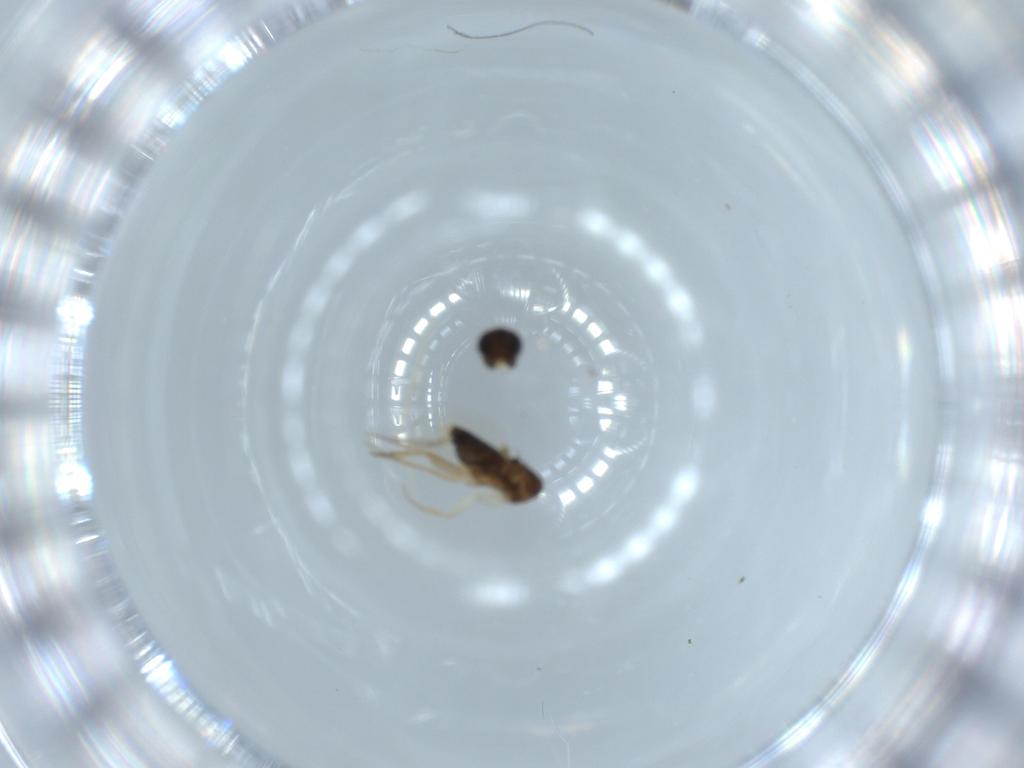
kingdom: Animalia
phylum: Arthropoda
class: Insecta
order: Diptera
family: Phoridae
